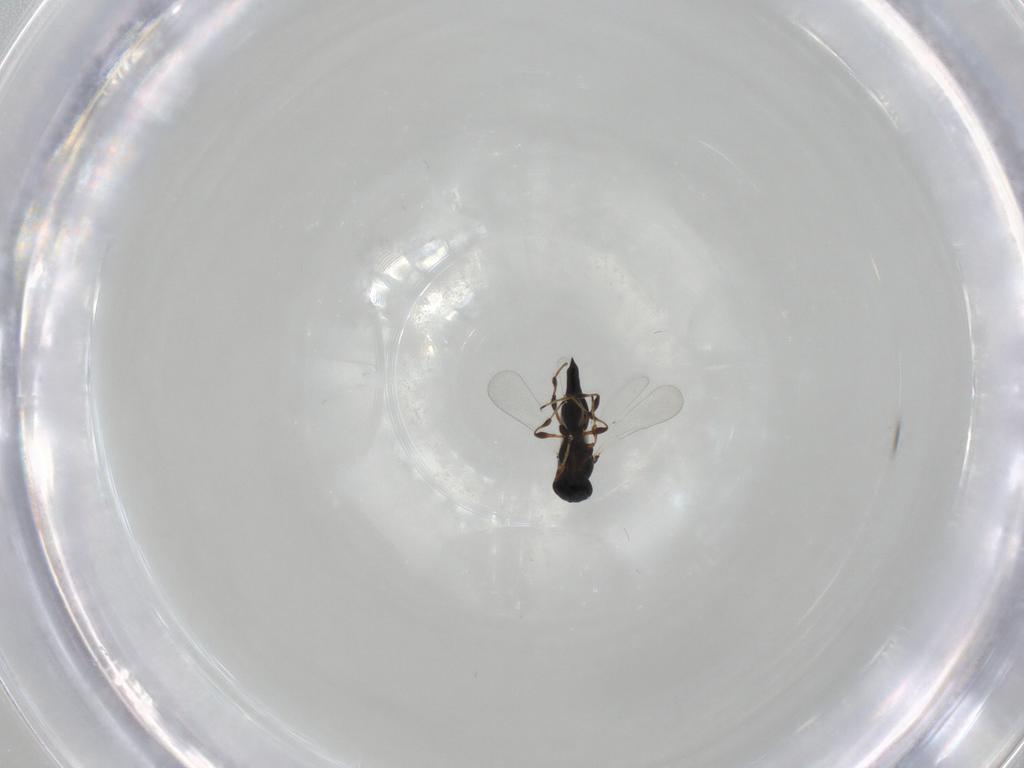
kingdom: Animalia
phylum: Arthropoda
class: Insecta
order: Hymenoptera
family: Platygastridae
